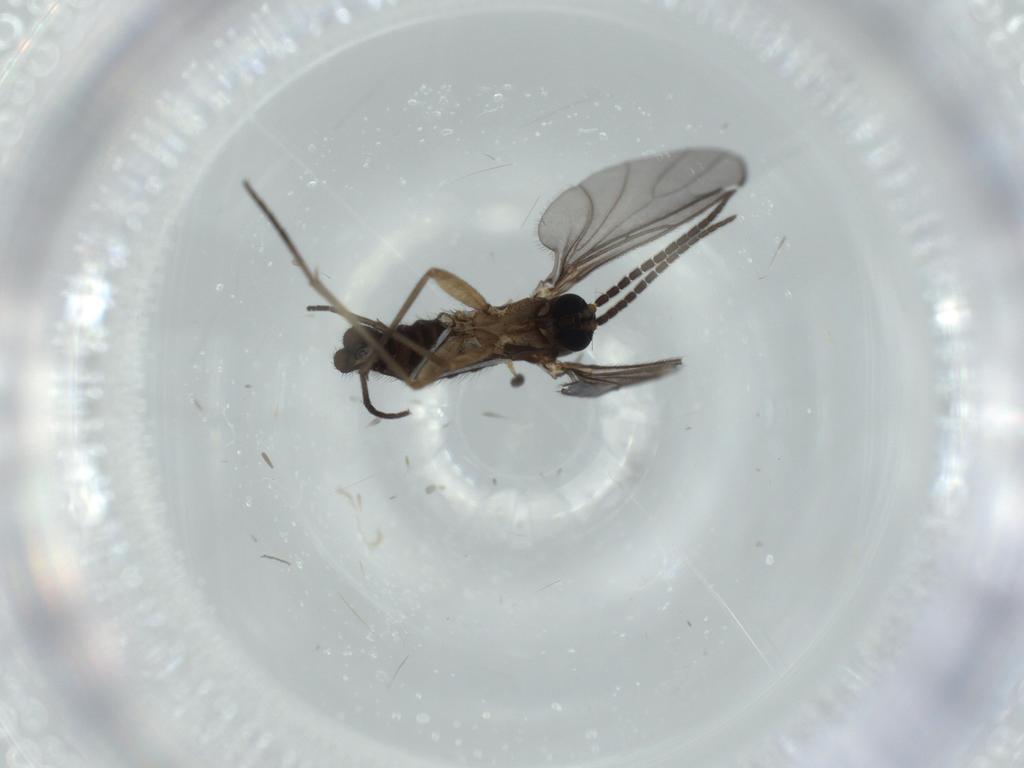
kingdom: Animalia
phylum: Arthropoda
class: Insecta
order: Diptera
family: Sciaridae
